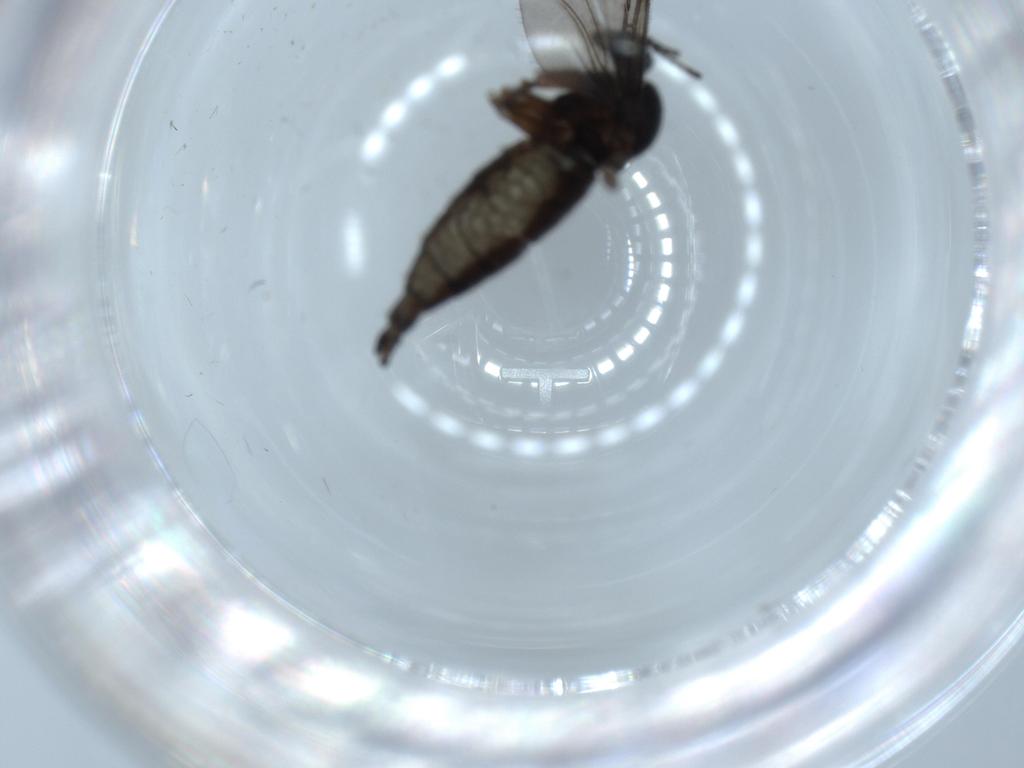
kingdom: Animalia
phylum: Arthropoda
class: Insecta
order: Diptera
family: Sciaridae
